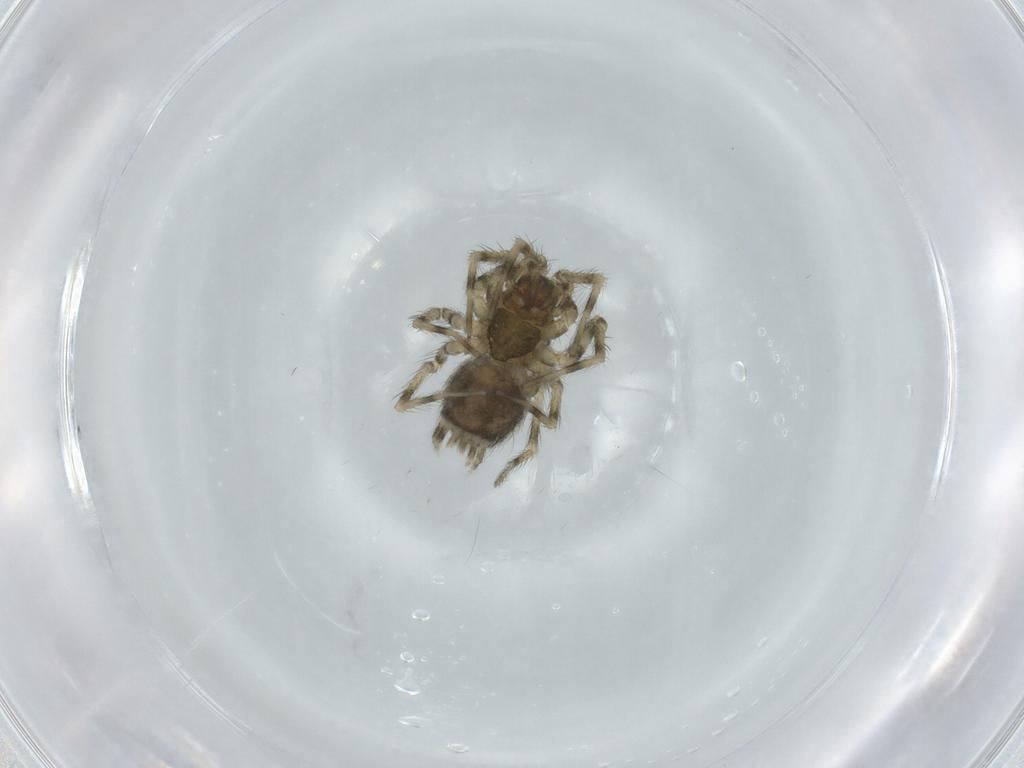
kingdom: Animalia
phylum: Arthropoda
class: Arachnida
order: Araneae
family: Hahniidae
